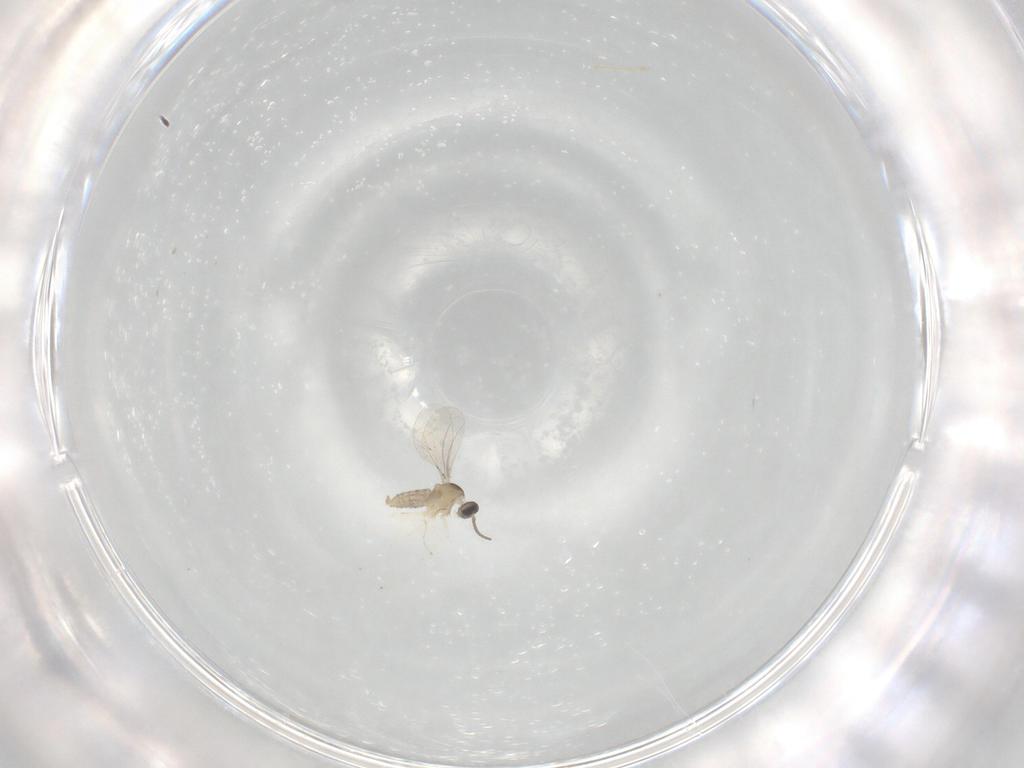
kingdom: Animalia
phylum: Arthropoda
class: Insecta
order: Diptera
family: Cecidomyiidae
